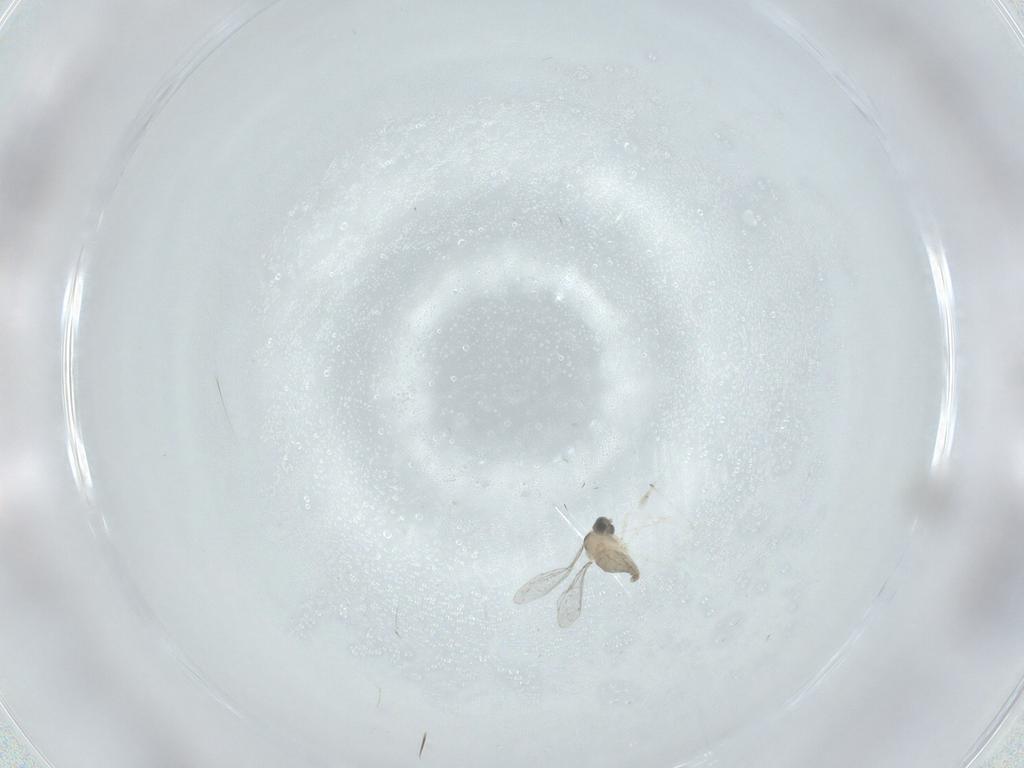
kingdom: Animalia
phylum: Arthropoda
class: Insecta
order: Diptera
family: Cecidomyiidae
